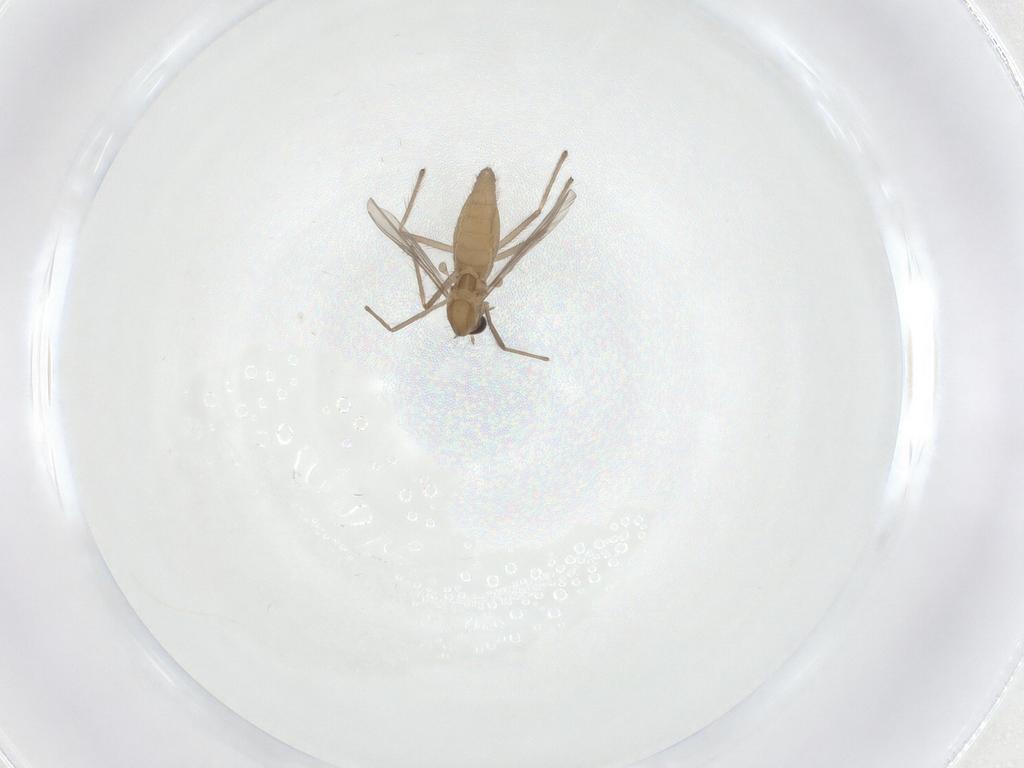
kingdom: Animalia
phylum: Arthropoda
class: Insecta
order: Diptera
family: Chironomidae
